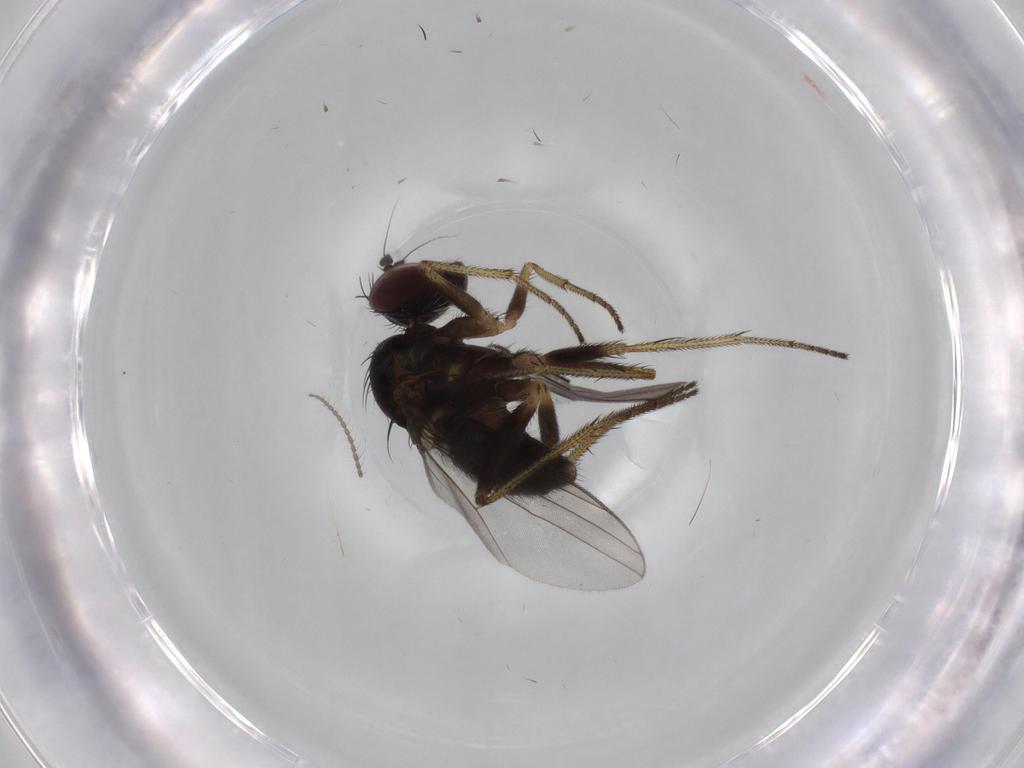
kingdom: Animalia
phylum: Arthropoda
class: Insecta
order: Diptera
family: Dolichopodidae
